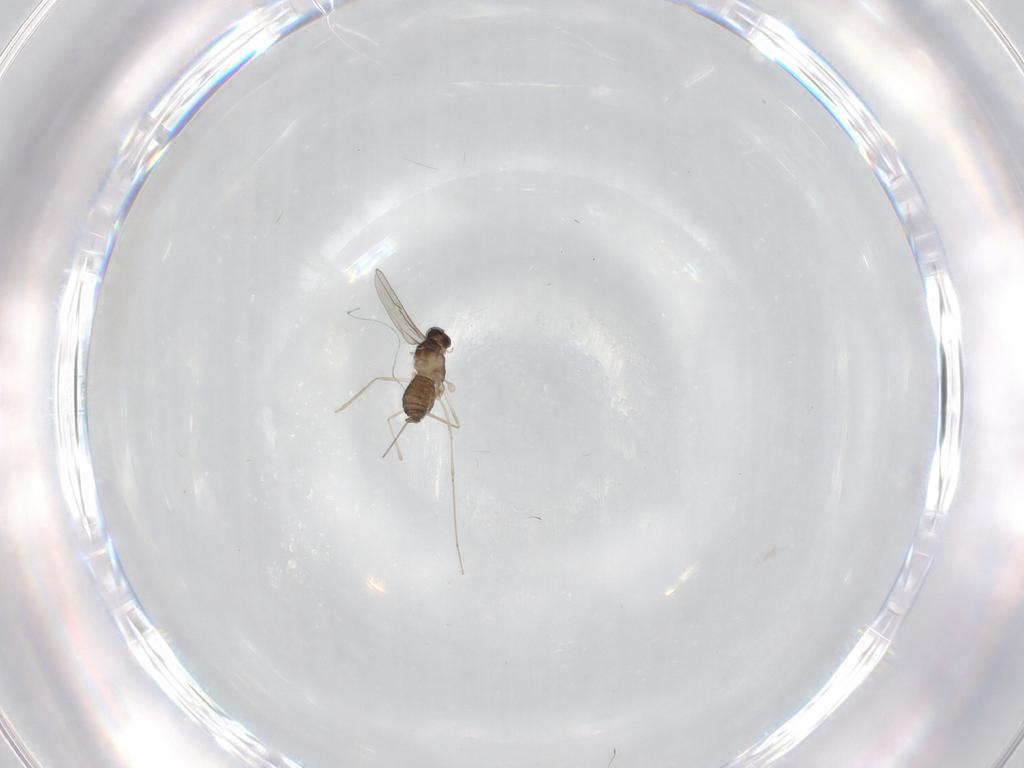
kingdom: Animalia
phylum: Arthropoda
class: Insecta
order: Diptera
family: Cecidomyiidae
